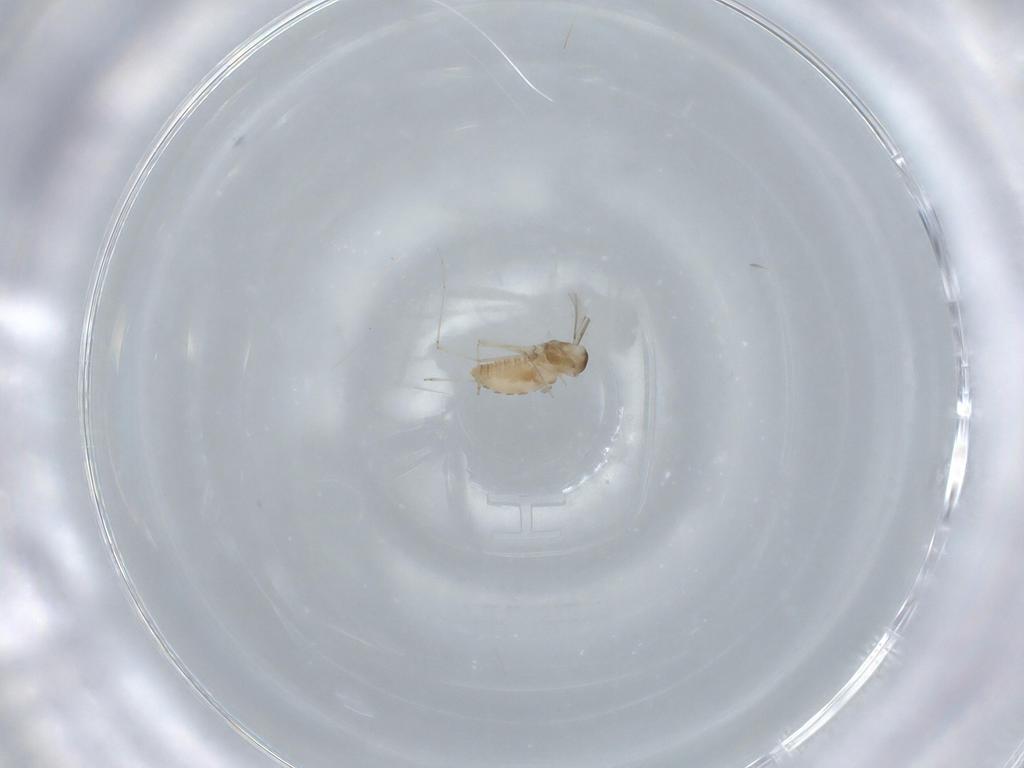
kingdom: Animalia
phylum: Arthropoda
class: Insecta
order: Diptera
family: Cecidomyiidae
